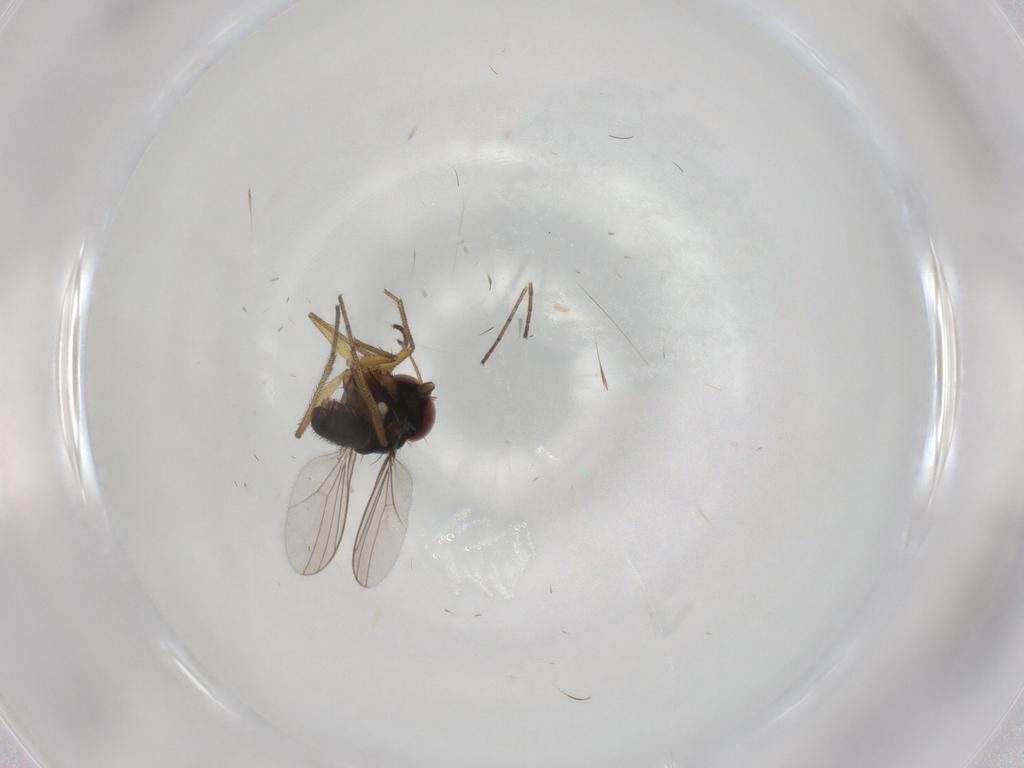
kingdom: Animalia
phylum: Arthropoda
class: Insecta
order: Diptera
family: Dolichopodidae
